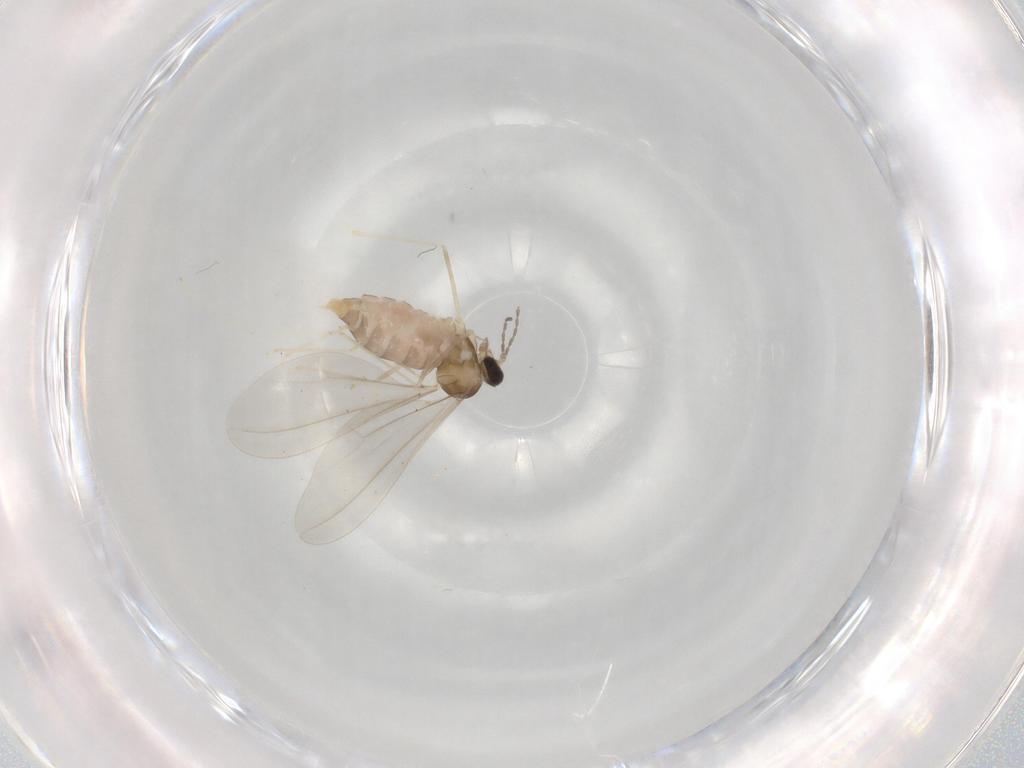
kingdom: Animalia
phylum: Arthropoda
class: Insecta
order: Diptera
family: Cecidomyiidae
